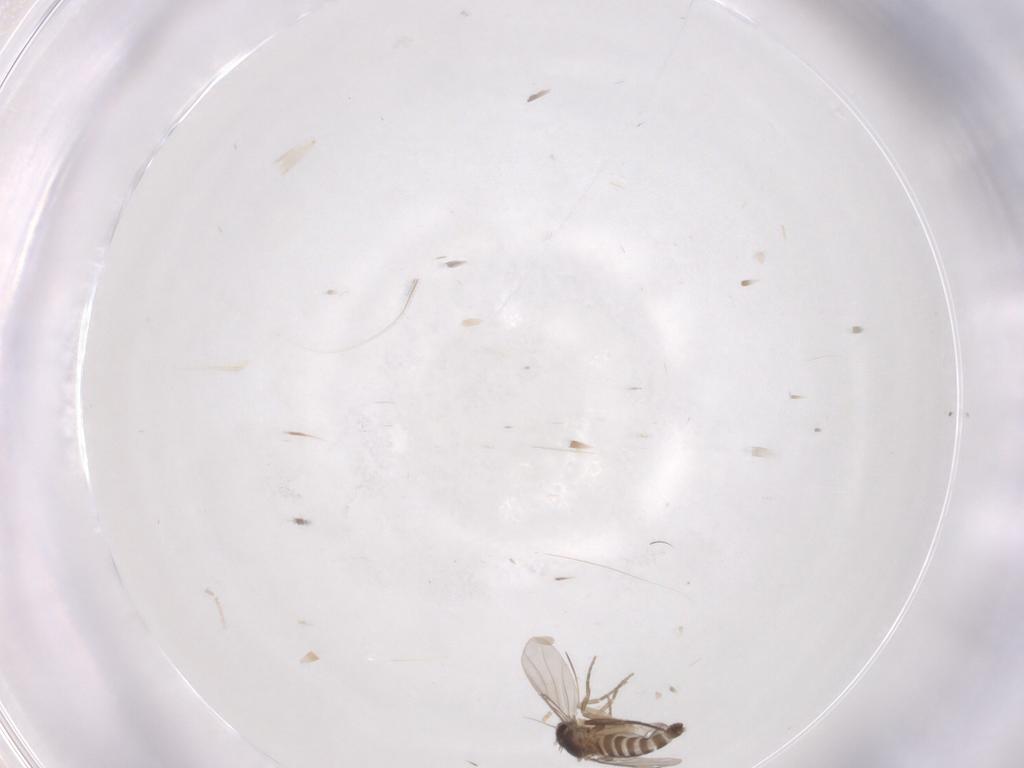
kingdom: Animalia
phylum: Arthropoda
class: Insecta
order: Diptera
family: Phoridae
